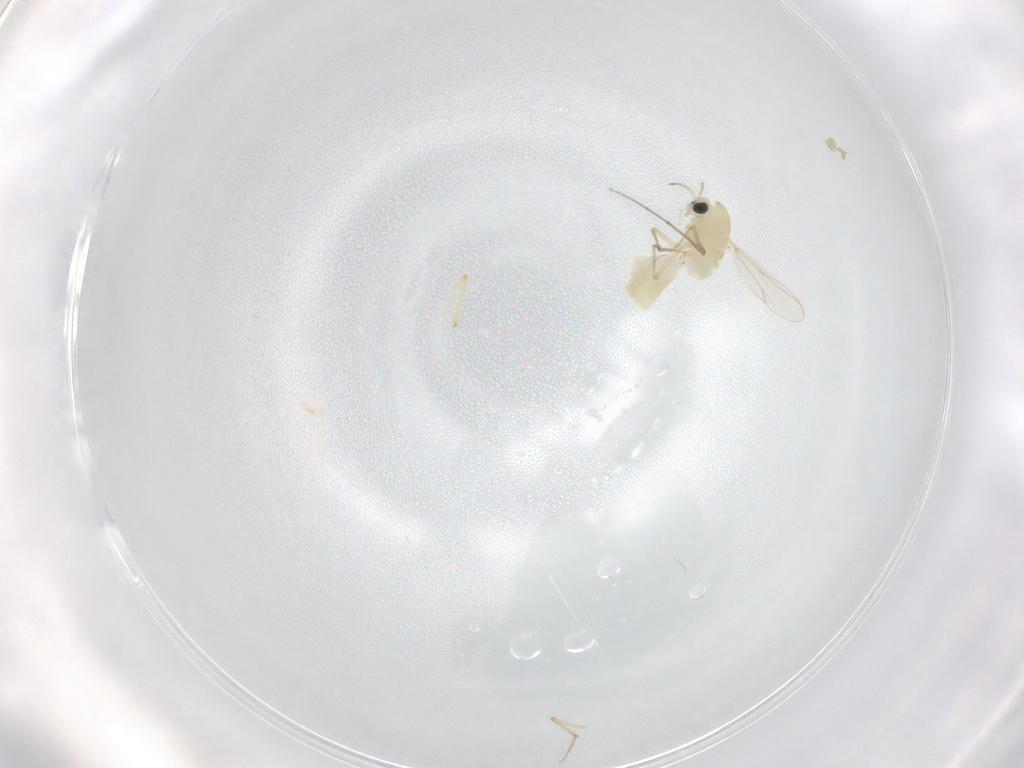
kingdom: Animalia
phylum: Arthropoda
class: Insecta
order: Diptera
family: Chironomidae
